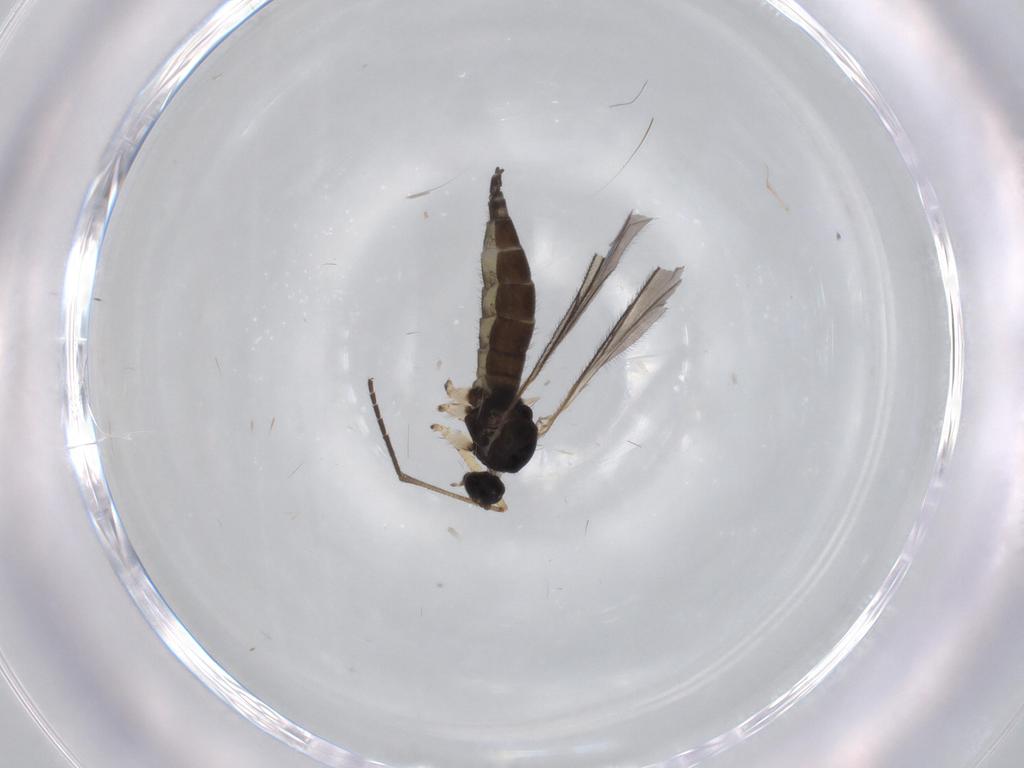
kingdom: Animalia
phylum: Arthropoda
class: Insecta
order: Diptera
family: Sciaridae
